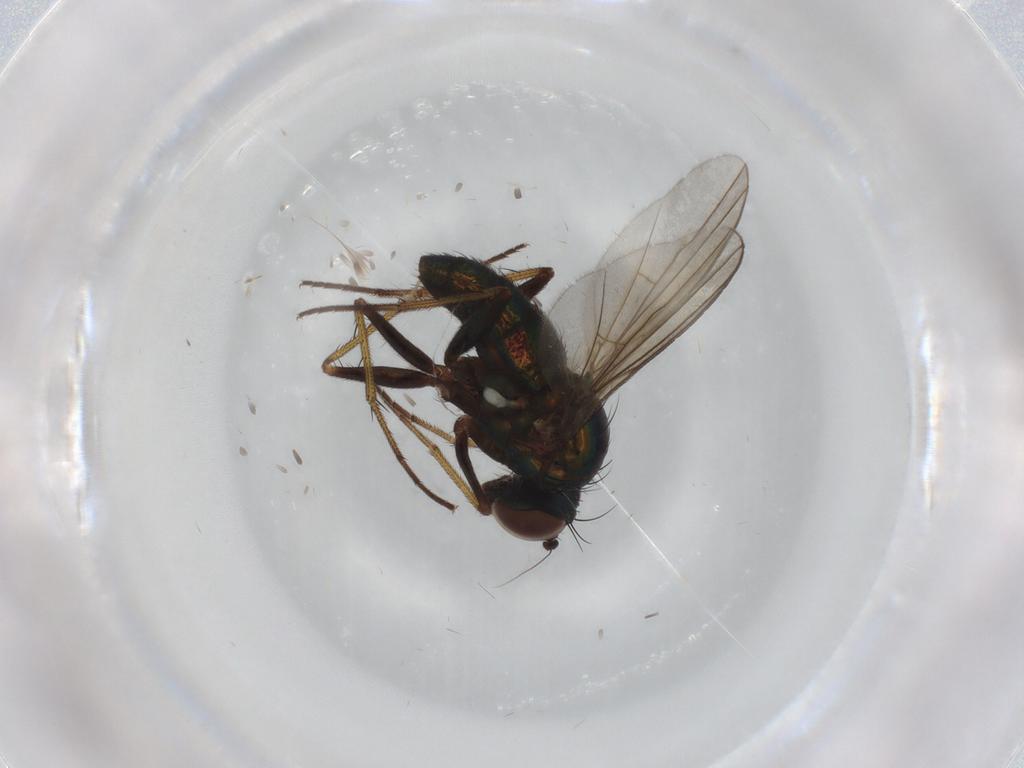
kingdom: Animalia
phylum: Arthropoda
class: Insecta
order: Diptera
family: Dolichopodidae
